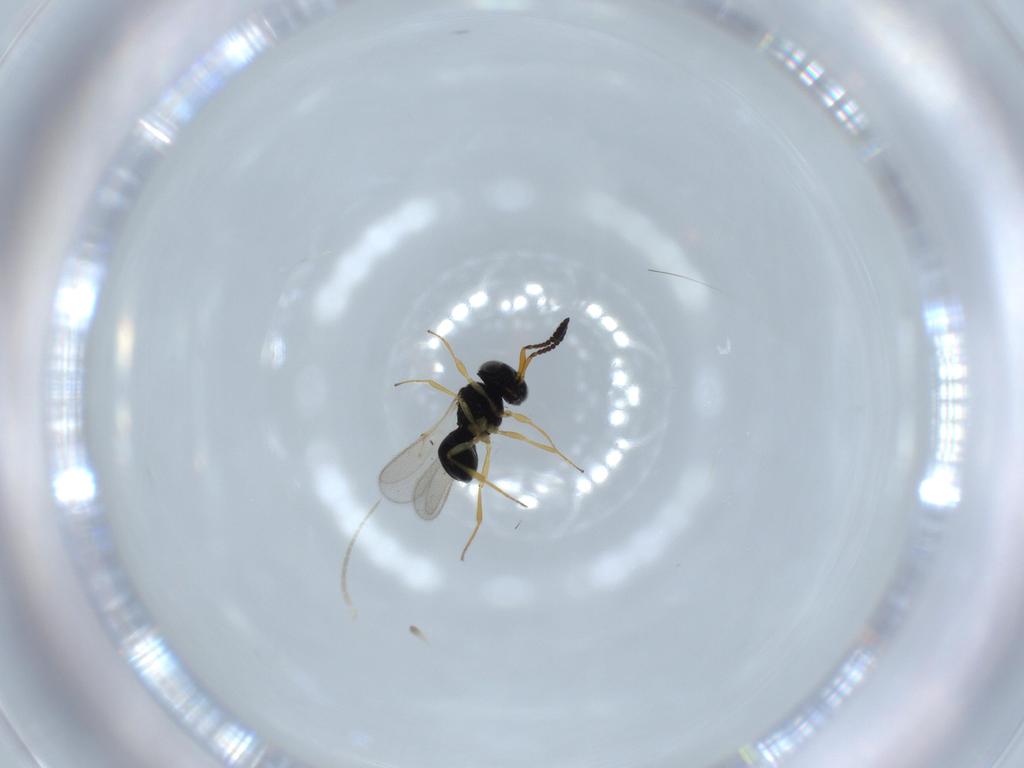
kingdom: Animalia
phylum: Arthropoda
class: Insecta
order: Hymenoptera
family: Scelionidae
